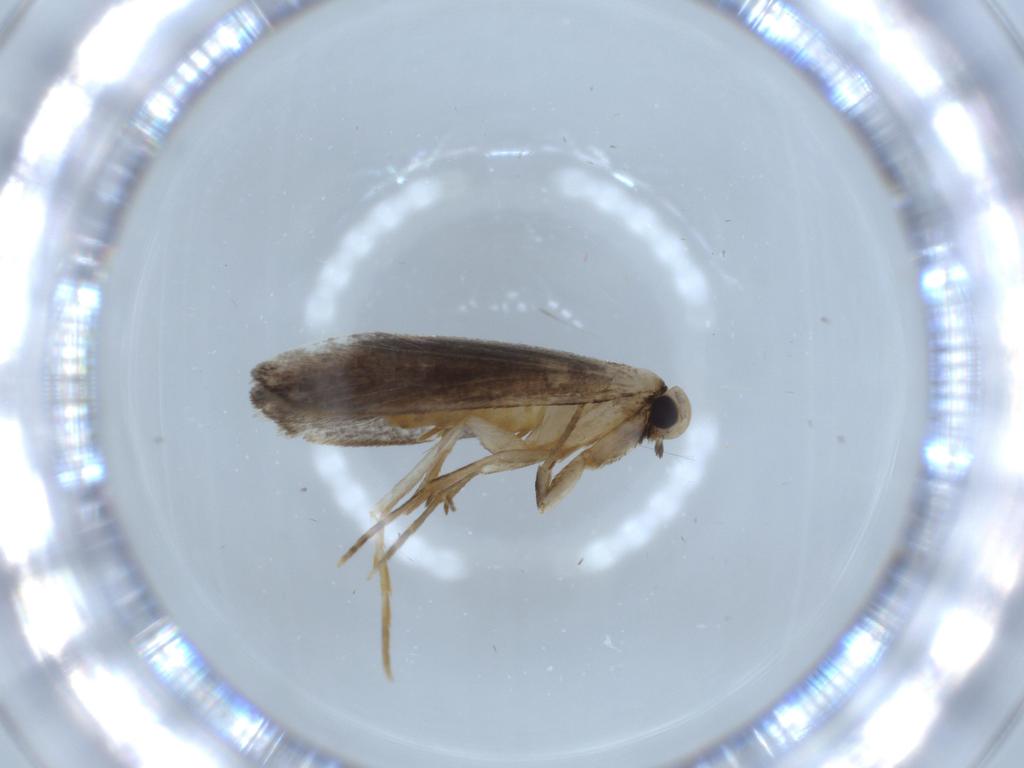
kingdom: Animalia
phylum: Arthropoda
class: Insecta
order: Lepidoptera
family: Tineidae
